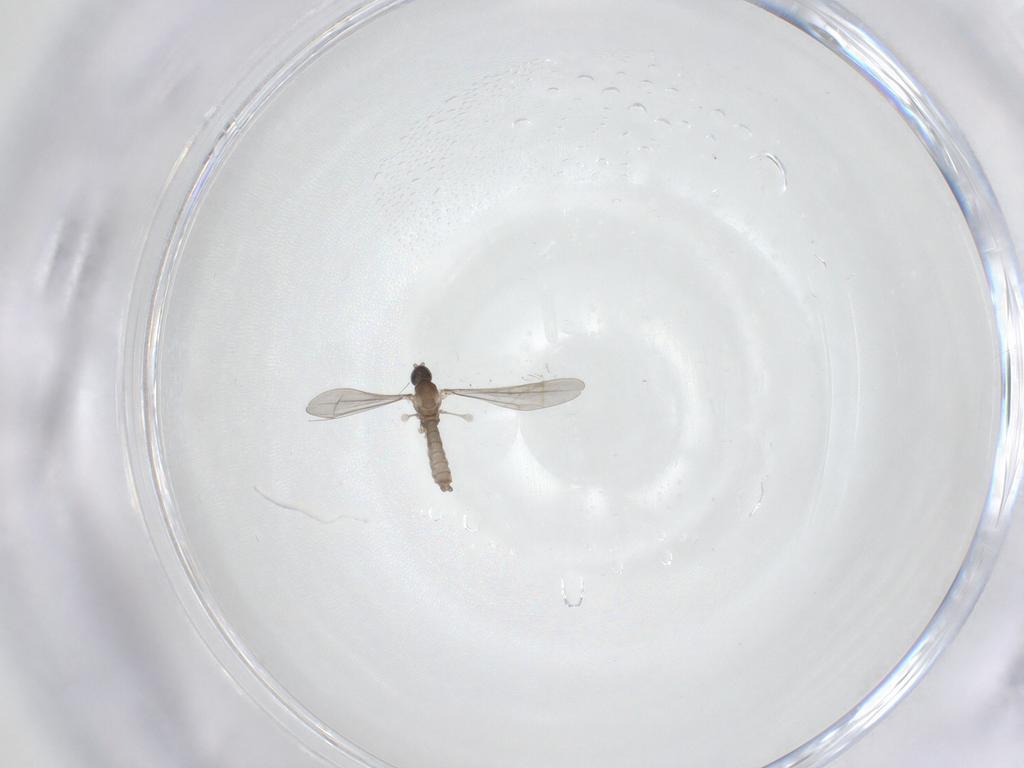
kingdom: Animalia
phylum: Arthropoda
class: Insecta
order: Diptera
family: Cecidomyiidae
